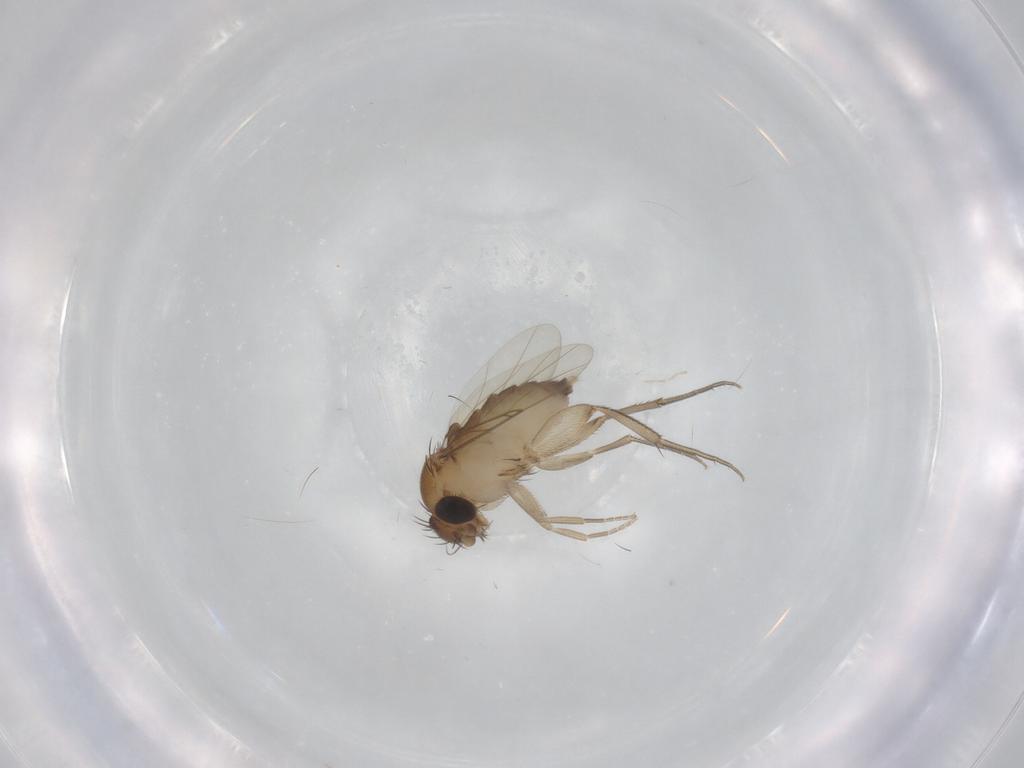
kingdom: Animalia
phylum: Arthropoda
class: Insecta
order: Diptera
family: Phoridae
